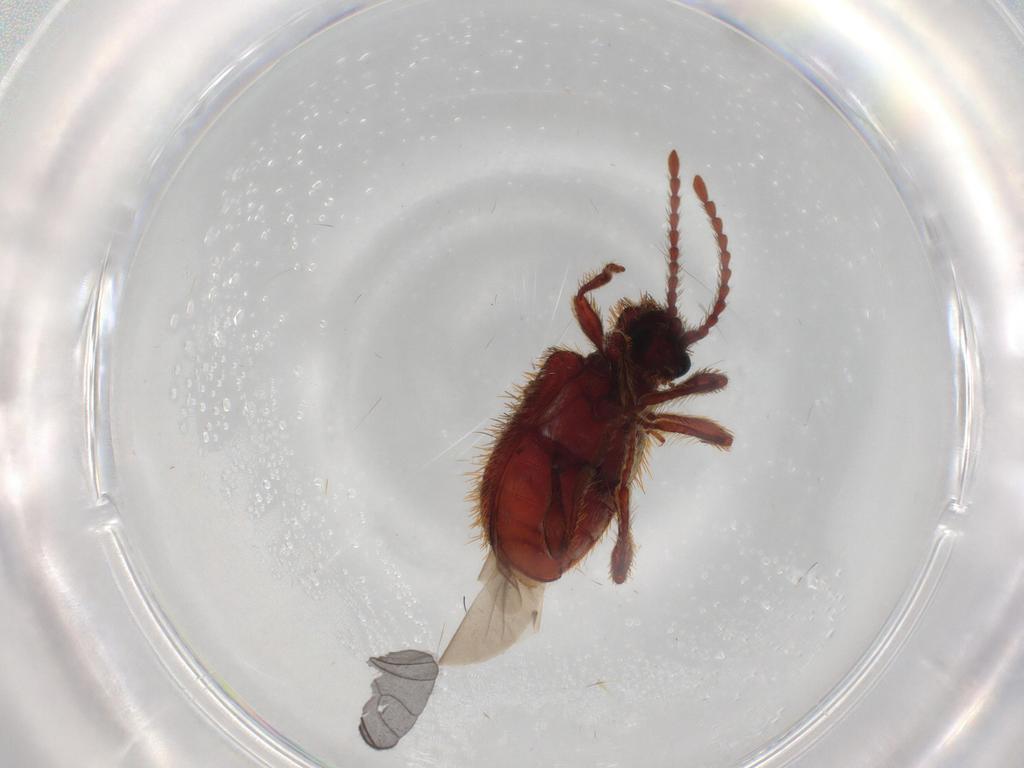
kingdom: Animalia
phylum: Arthropoda
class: Insecta
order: Coleoptera
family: Ptinidae
